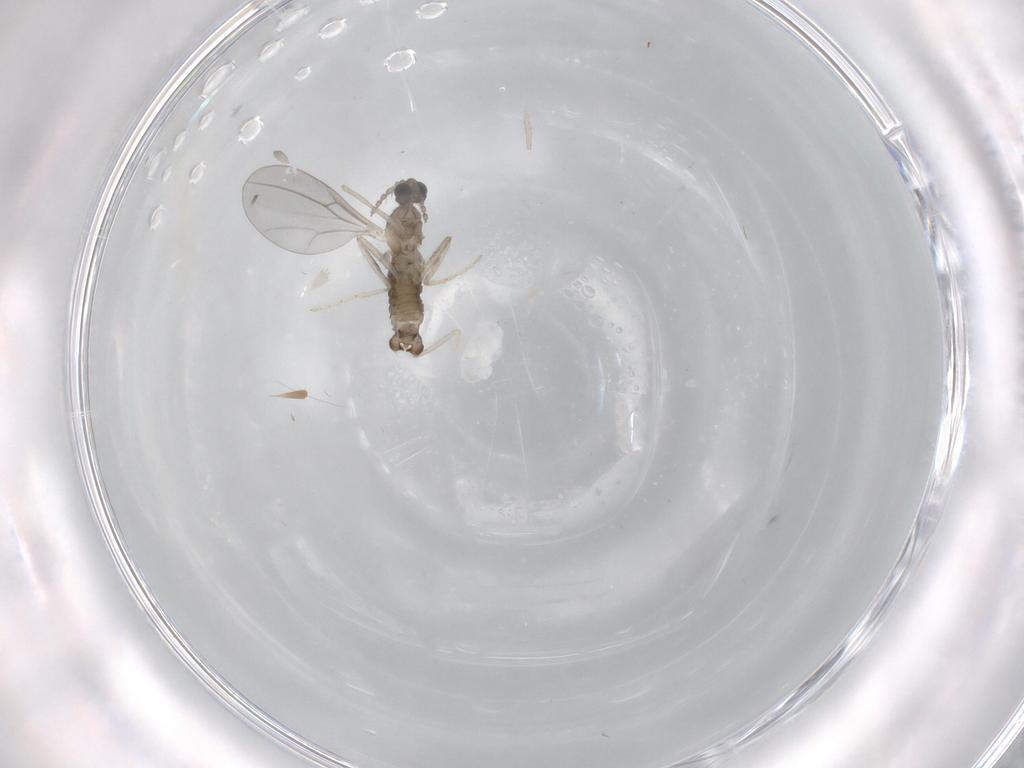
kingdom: Animalia
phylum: Arthropoda
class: Insecta
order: Diptera
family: Cecidomyiidae
